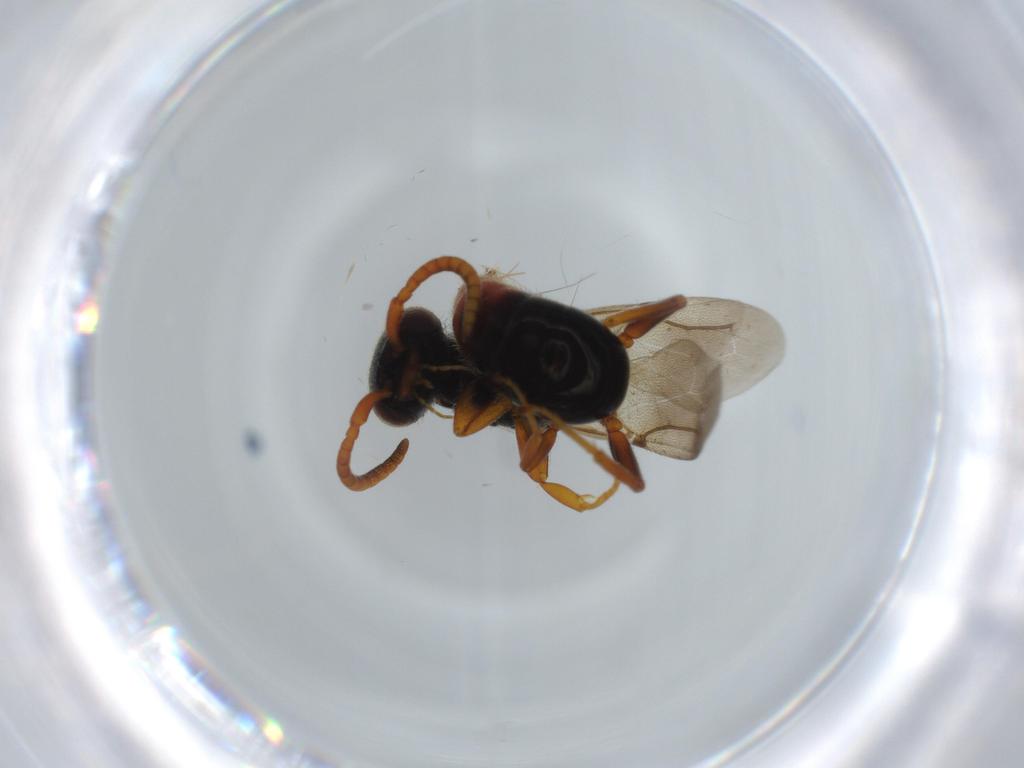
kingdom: Animalia
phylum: Arthropoda
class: Insecta
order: Hymenoptera
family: Bethylidae
